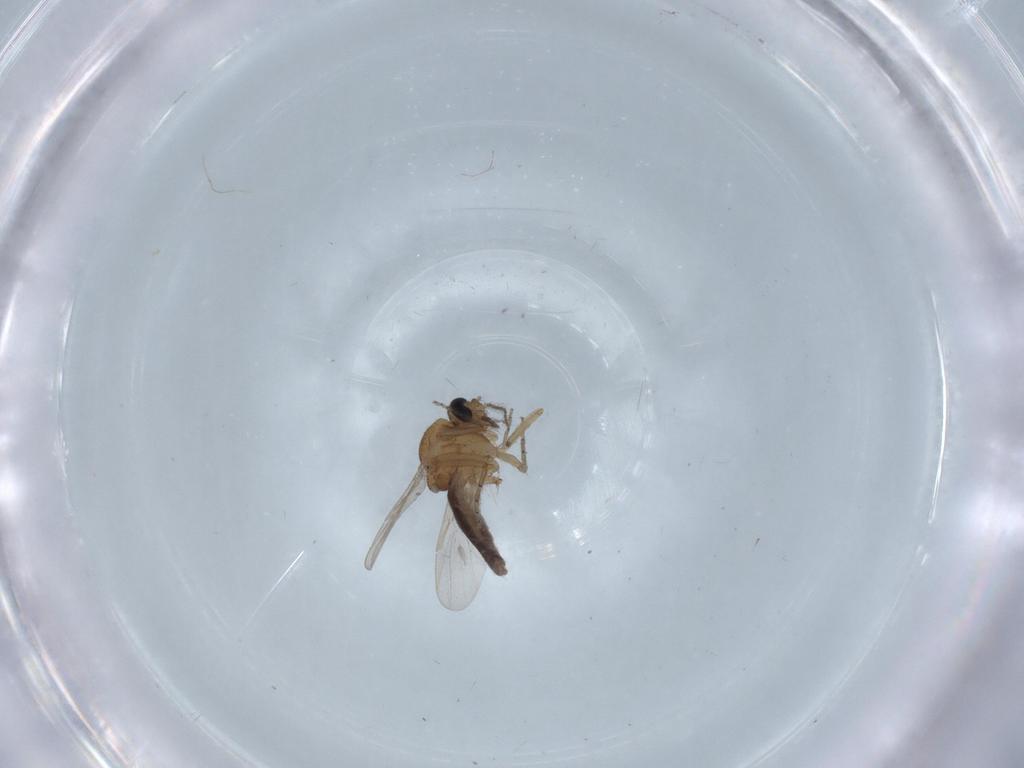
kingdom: Animalia
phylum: Arthropoda
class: Insecta
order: Diptera
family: Ceratopogonidae
